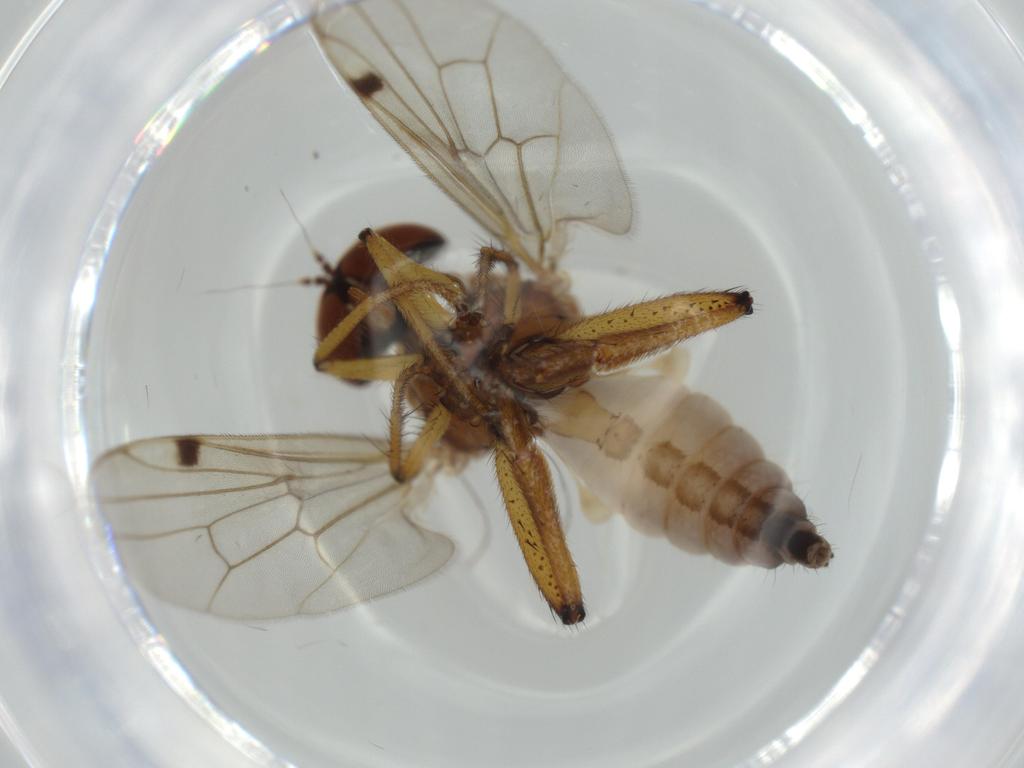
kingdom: Animalia
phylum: Arthropoda
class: Insecta
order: Diptera
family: Hybotidae
